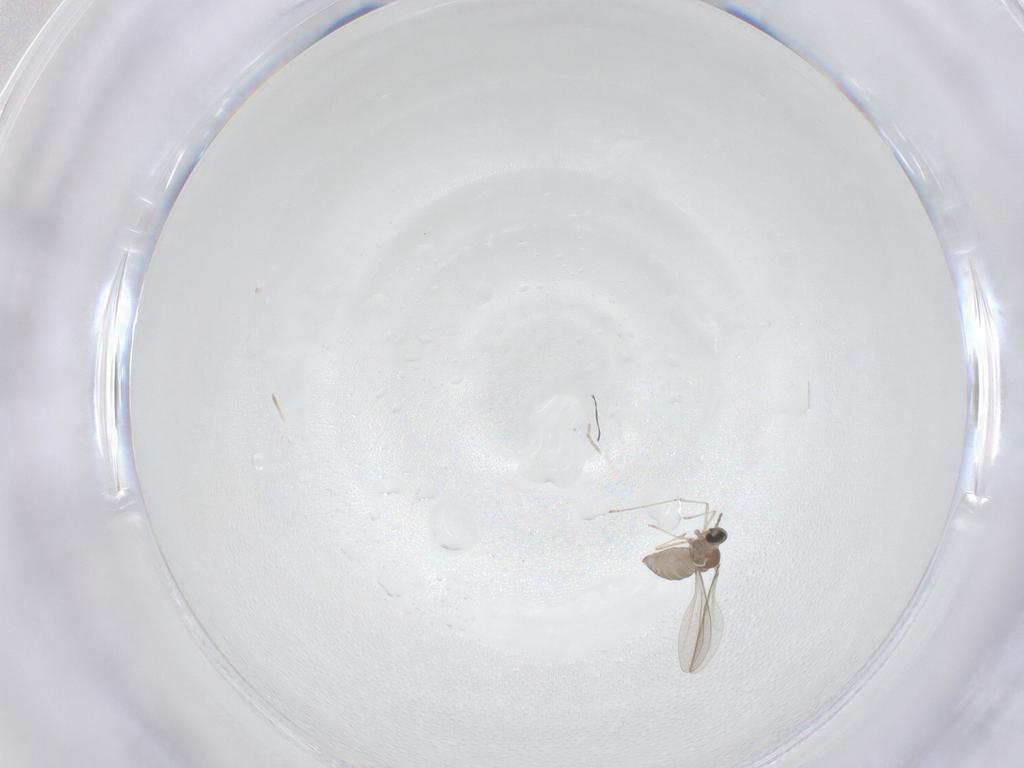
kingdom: Animalia
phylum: Arthropoda
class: Insecta
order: Diptera
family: Phoridae
